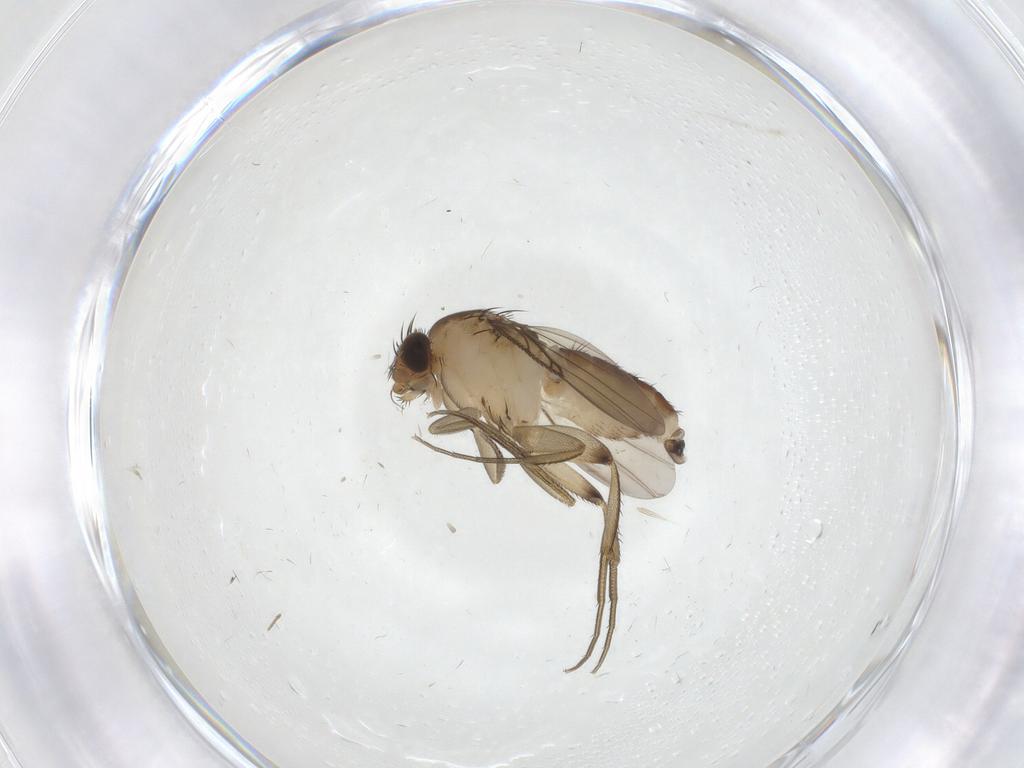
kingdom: Animalia
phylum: Arthropoda
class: Insecta
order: Diptera
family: Phoridae
